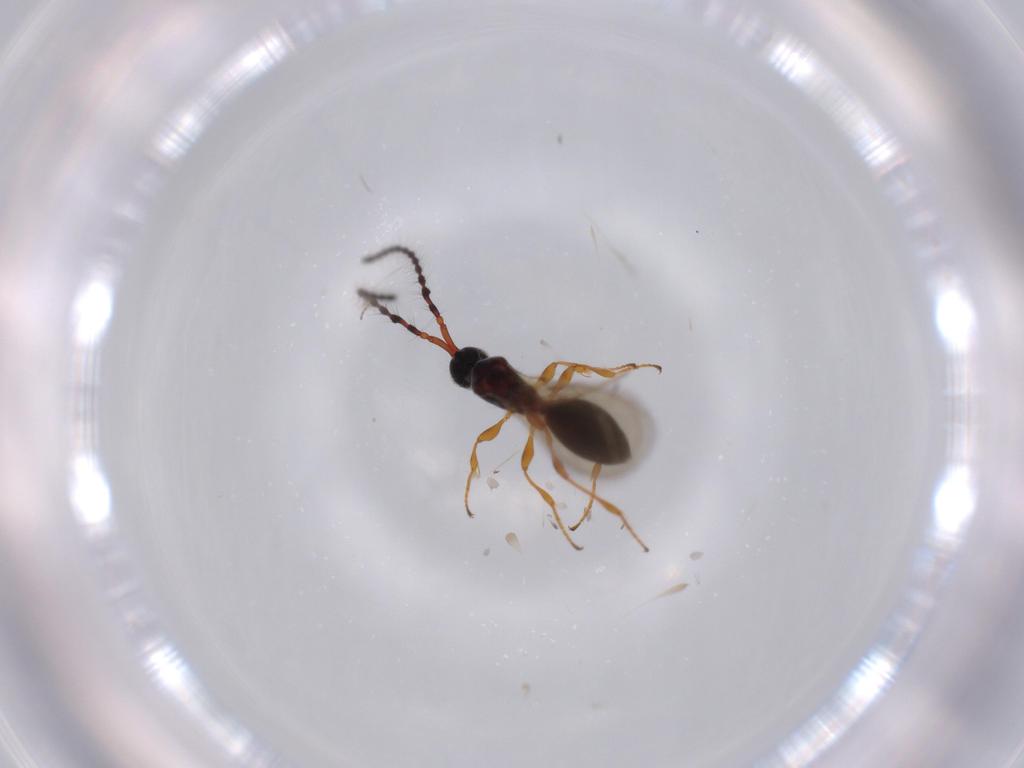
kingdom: Animalia
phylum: Arthropoda
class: Insecta
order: Hymenoptera
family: Diapriidae
